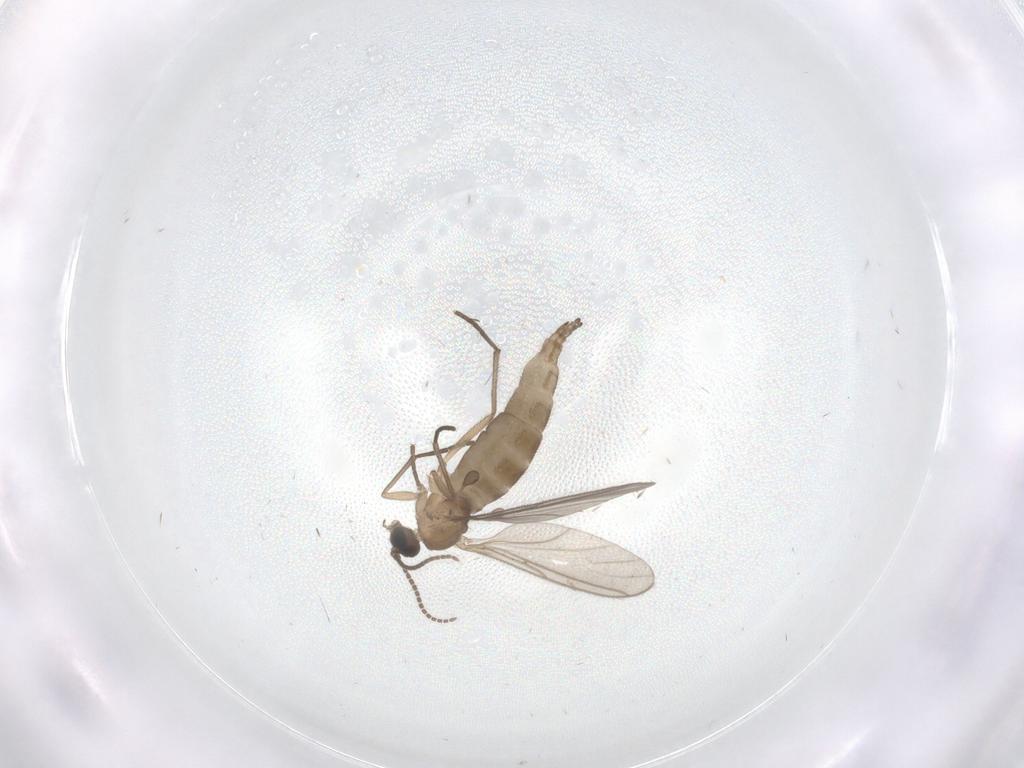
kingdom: Animalia
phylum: Arthropoda
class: Insecta
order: Diptera
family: Sciaridae
